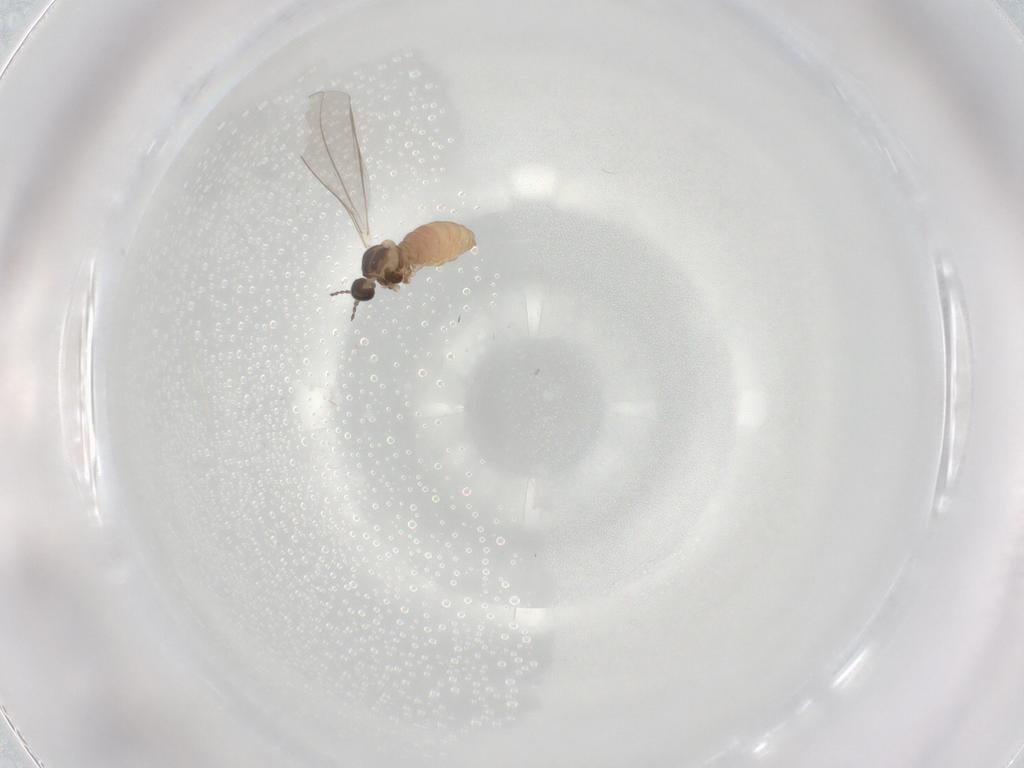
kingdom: Animalia
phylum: Arthropoda
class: Insecta
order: Diptera
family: Cecidomyiidae
